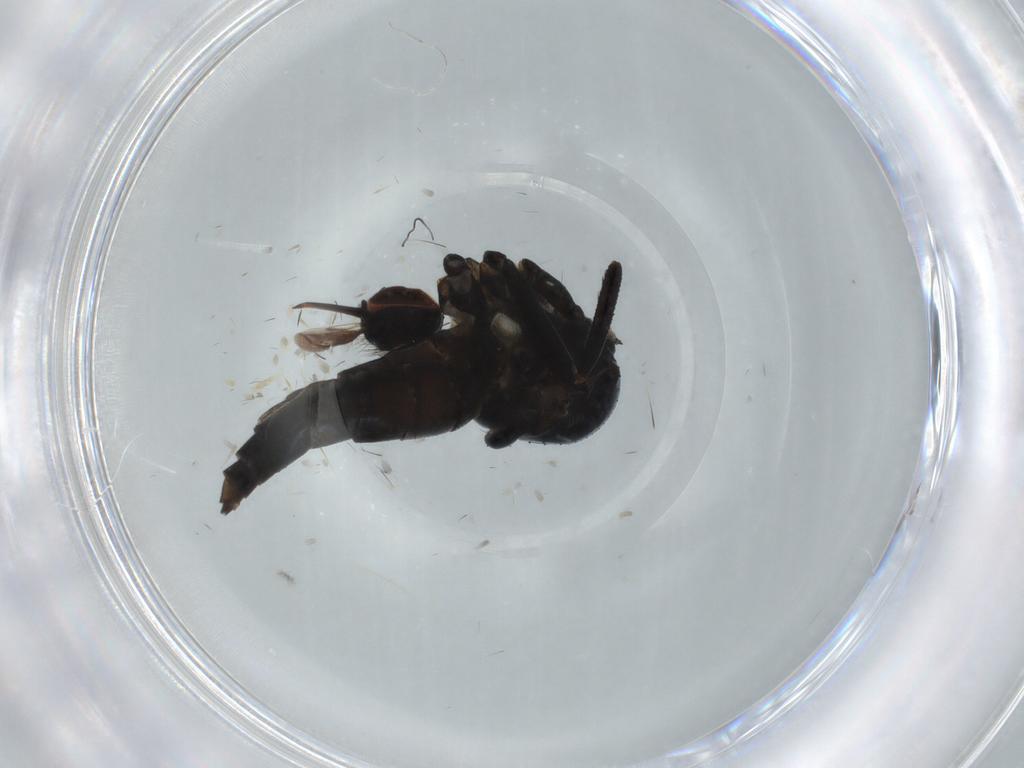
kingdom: Animalia
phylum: Arthropoda
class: Insecta
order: Diptera
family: Empididae
